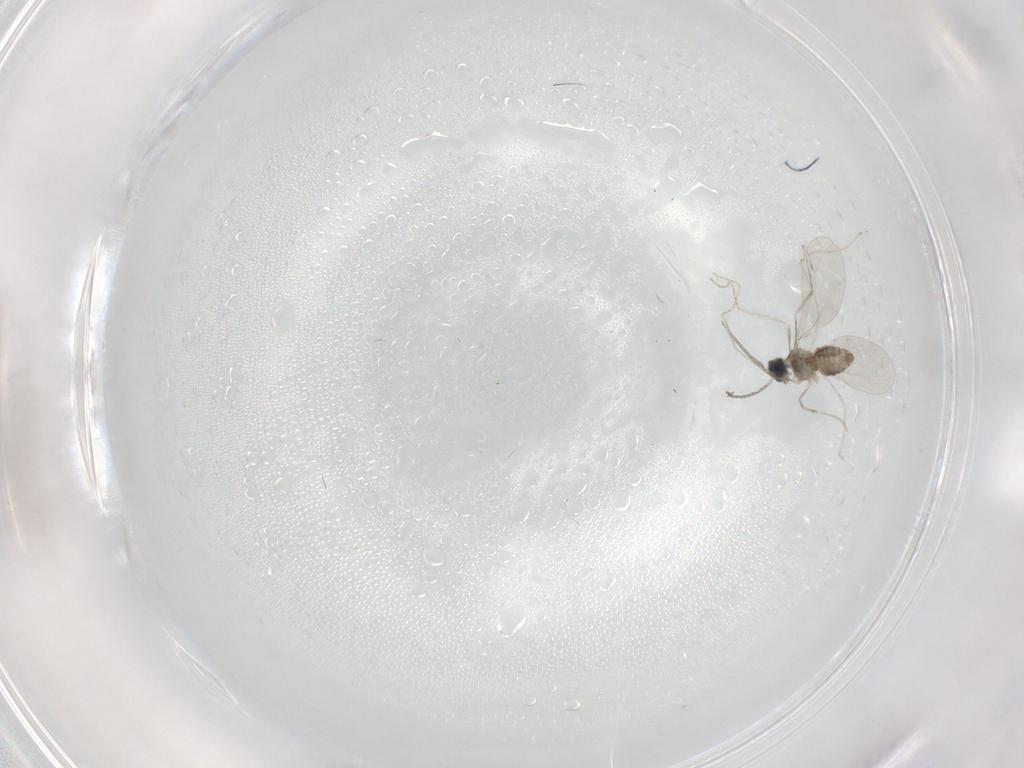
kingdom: Animalia
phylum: Arthropoda
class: Insecta
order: Diptera
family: Cecidomyiidae
